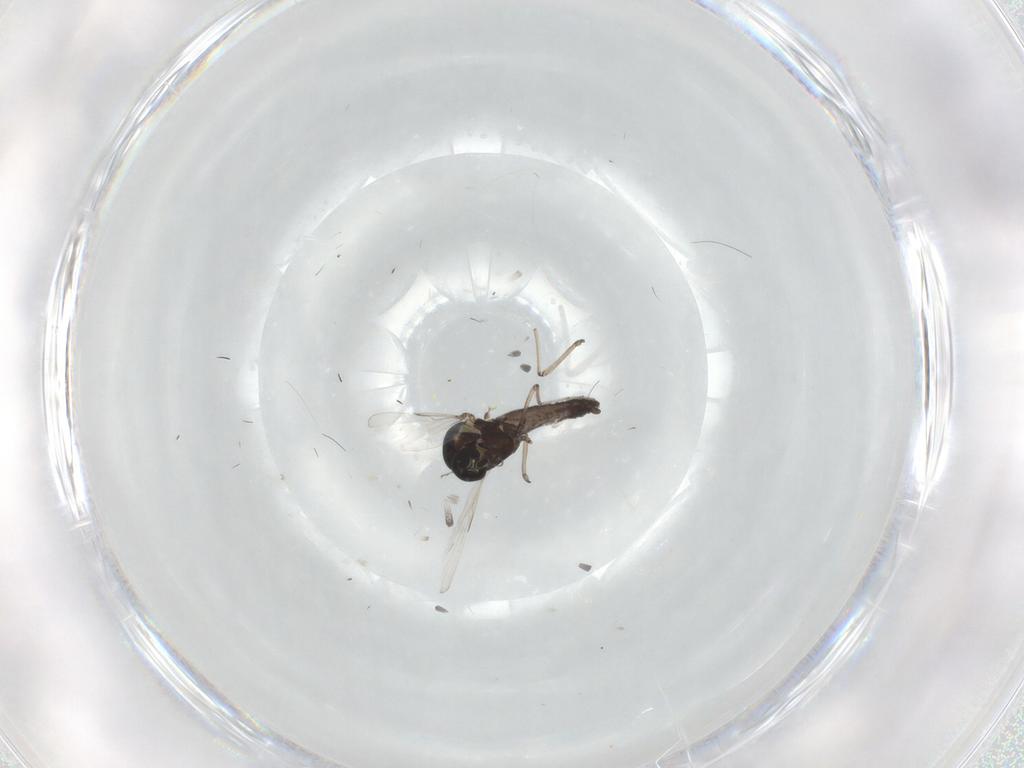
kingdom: Animalia
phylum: Arthropoda
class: Insecta
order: Diptera
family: Ceratopogonidae
